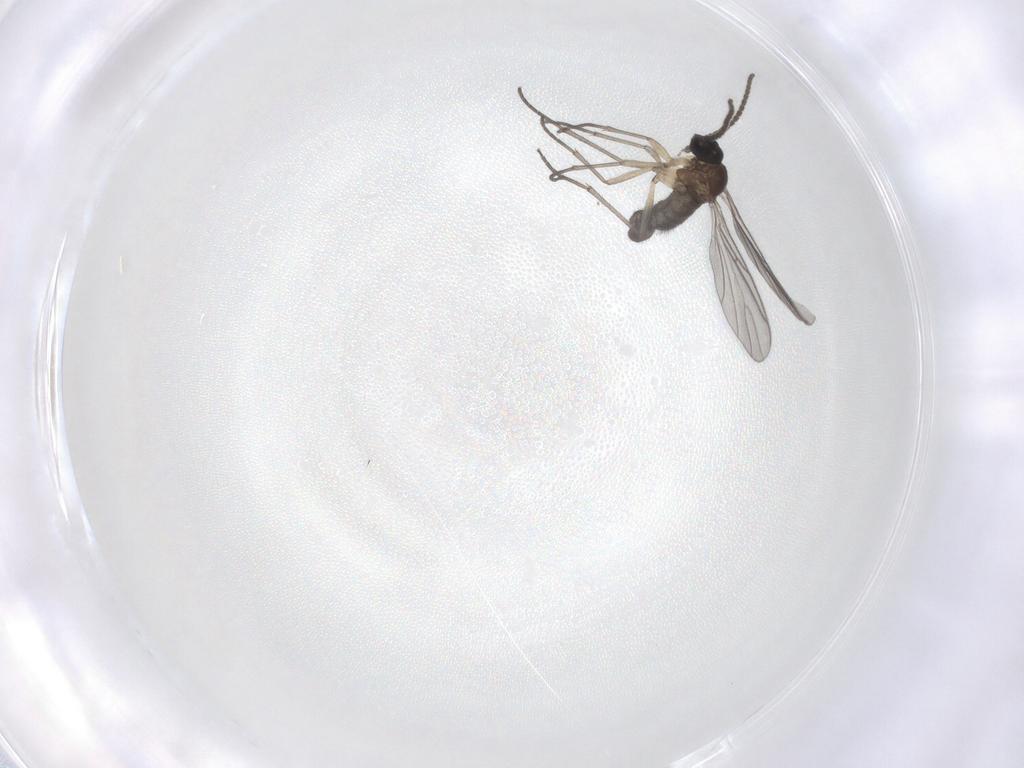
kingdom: Animalia
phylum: Arthropoda
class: Insecta
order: Diptera
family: Sciaridae
